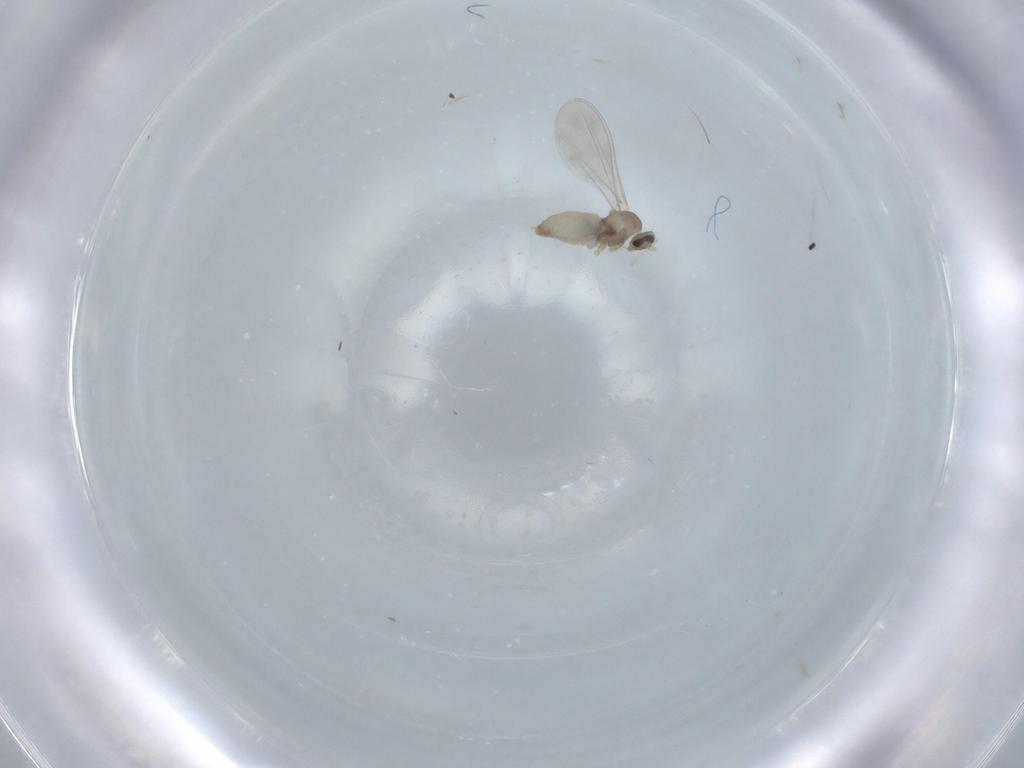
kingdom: Animalia
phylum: Arthropoda
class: Insecta
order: Diptera
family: Cecidomyiidae
